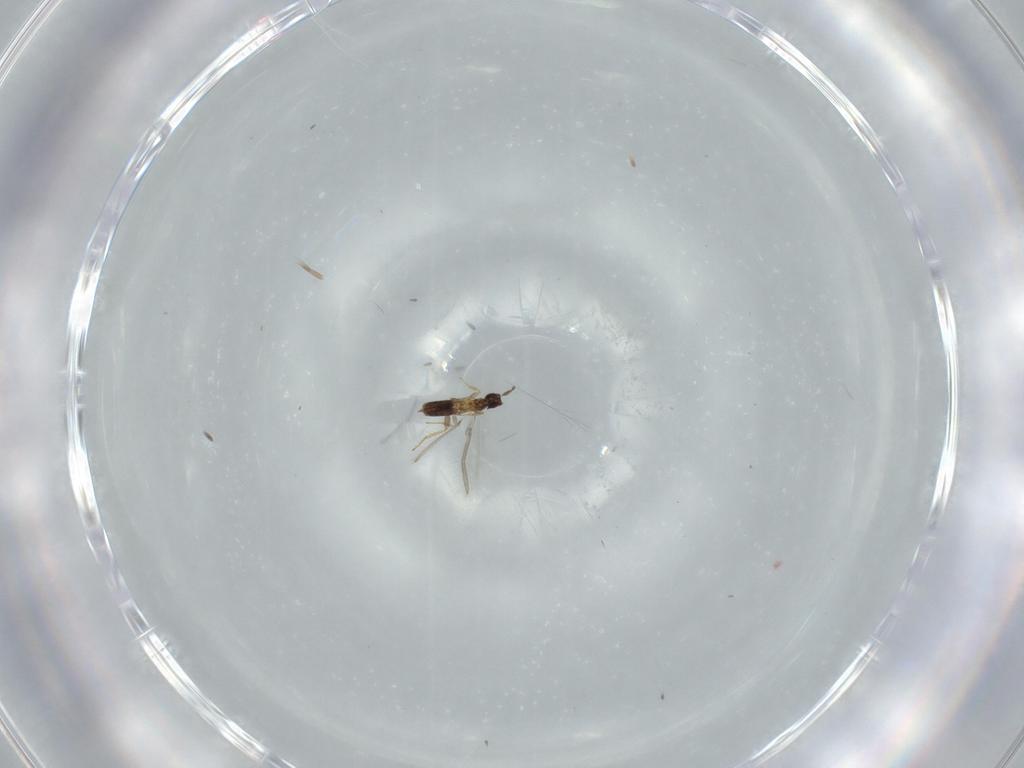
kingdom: Animalia
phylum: Arthropoda
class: Insecta
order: Hymenoptera
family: Mymaridae
